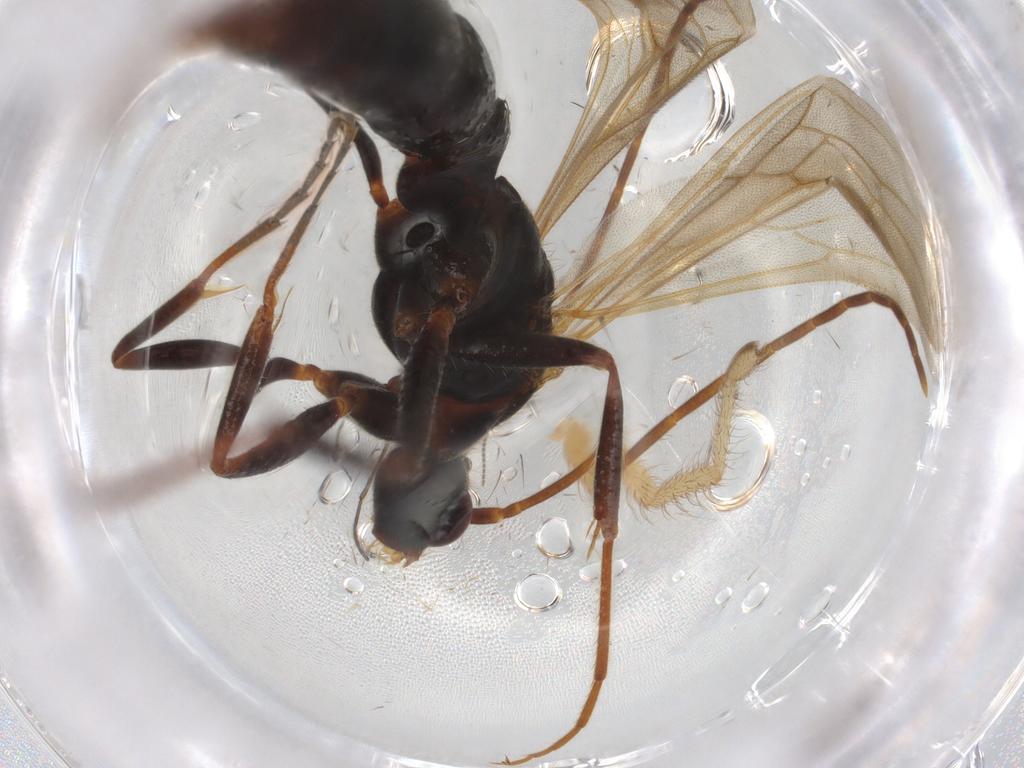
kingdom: Animalia
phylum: Arthropoda
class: Insecta
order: Hymenoptera
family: Formicidae
